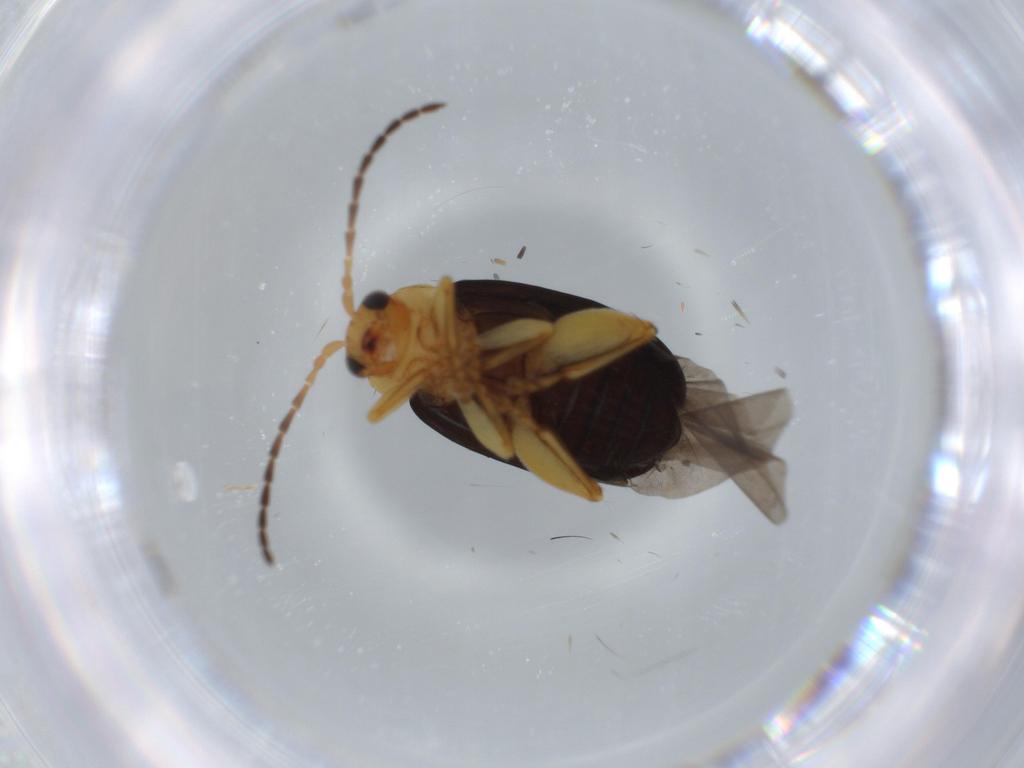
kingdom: Animalia
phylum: Arthropoda
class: Insecta
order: Coleoptera
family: Chrysomelidae
